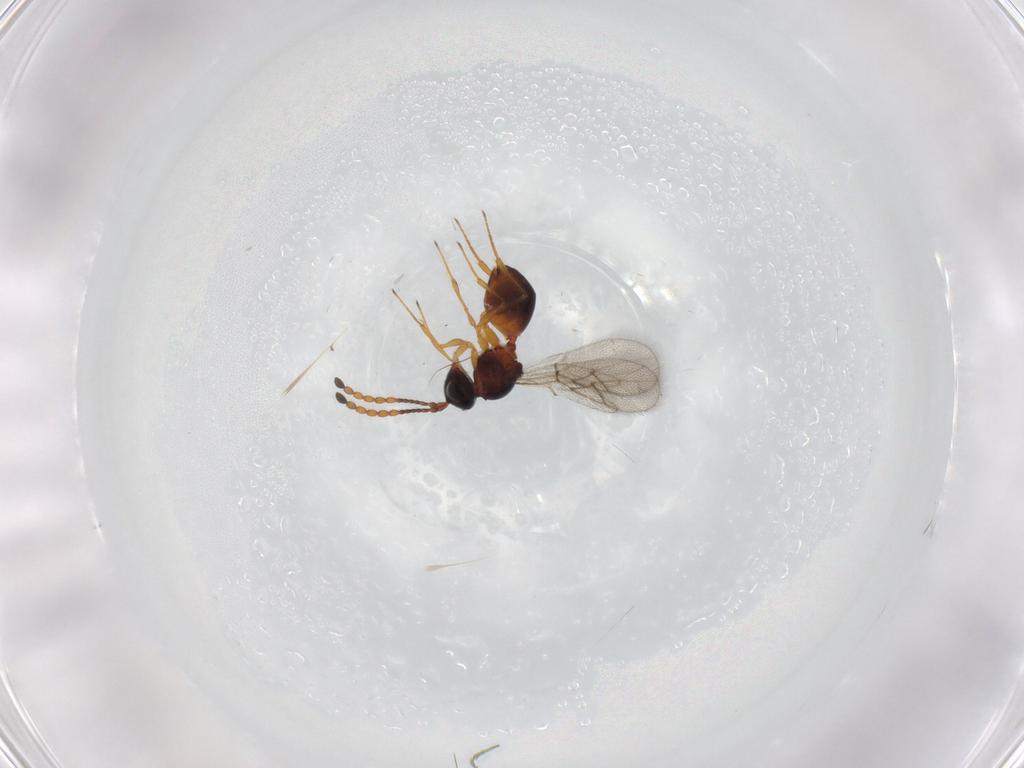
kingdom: Animalia
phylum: Arthropoda
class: Insecta
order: Hymenoptera
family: Figitidae
